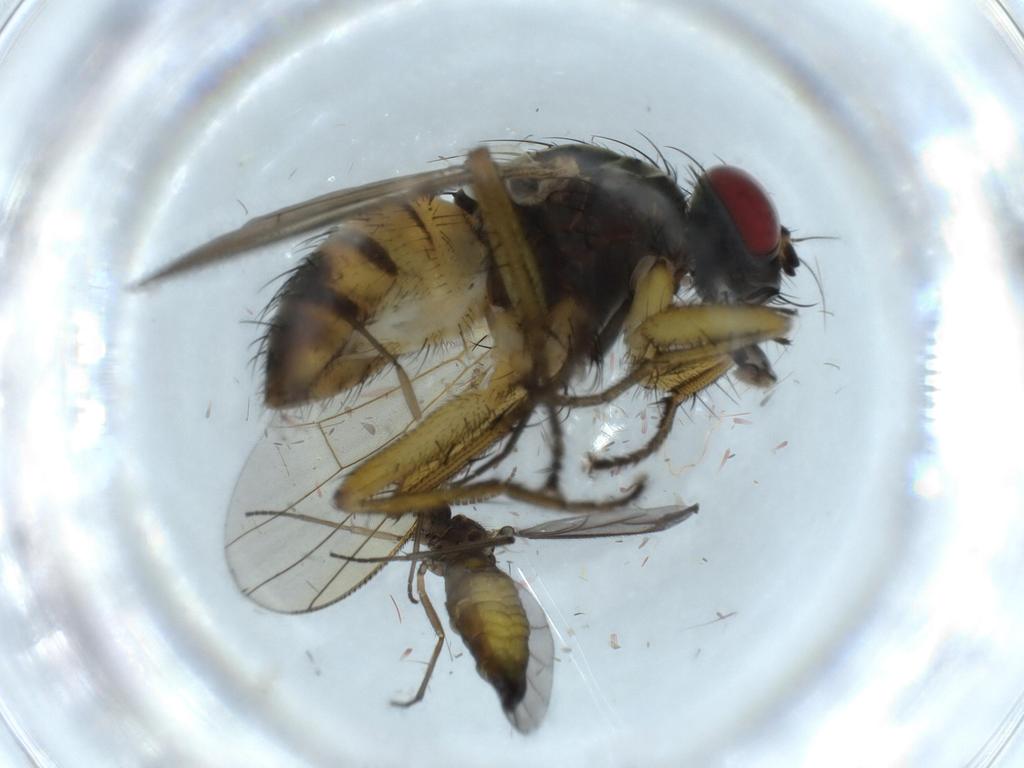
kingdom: Animalia
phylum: Arthropoda
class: Insecta
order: Diptera
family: Muscidae
